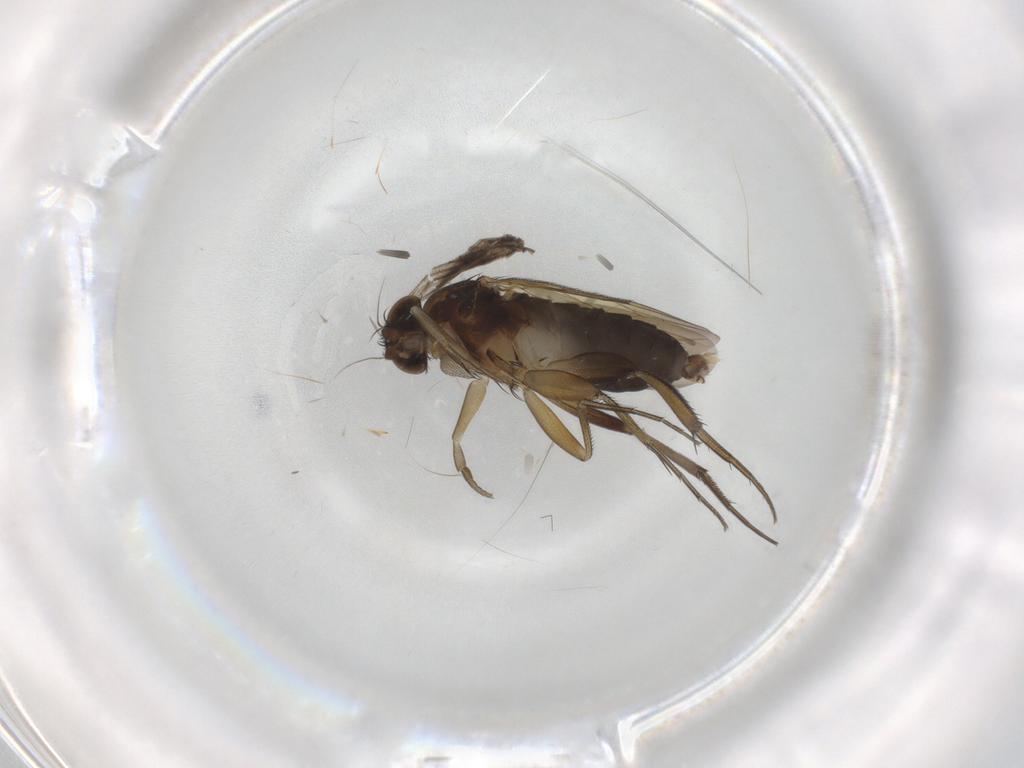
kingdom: Animalia
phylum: Arthropoda
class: Insecta
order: Diptera
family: Phoridae
